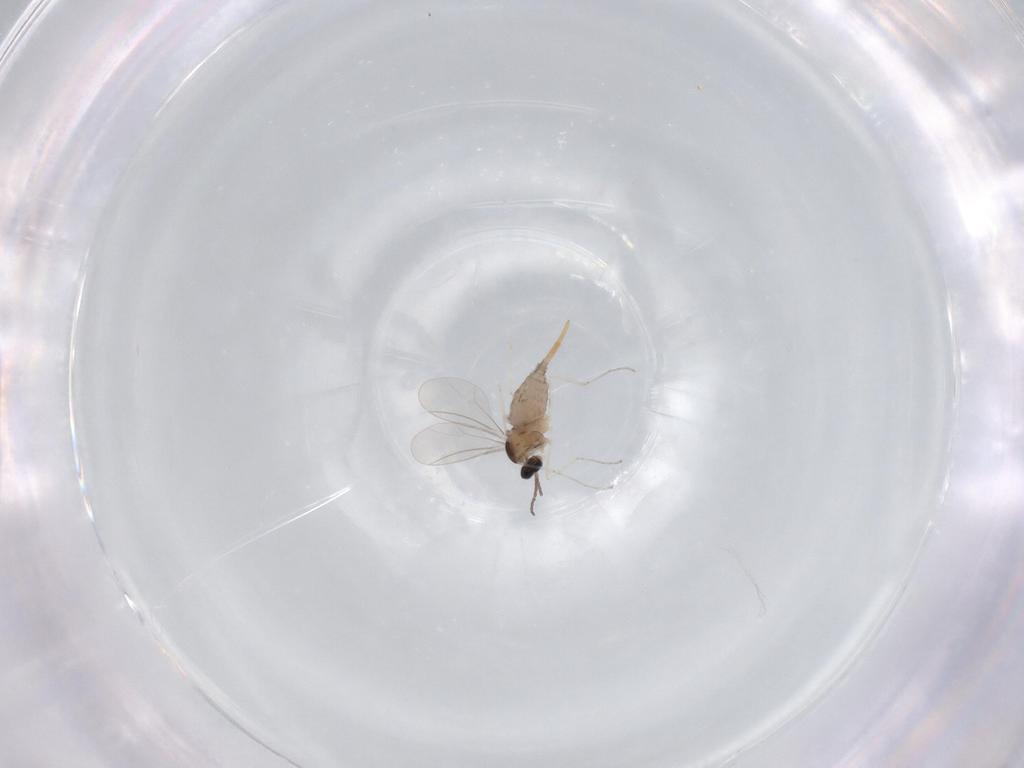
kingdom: Animalia
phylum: Arthropoda
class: Insecta
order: Diptera
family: Cecidomyiidae
